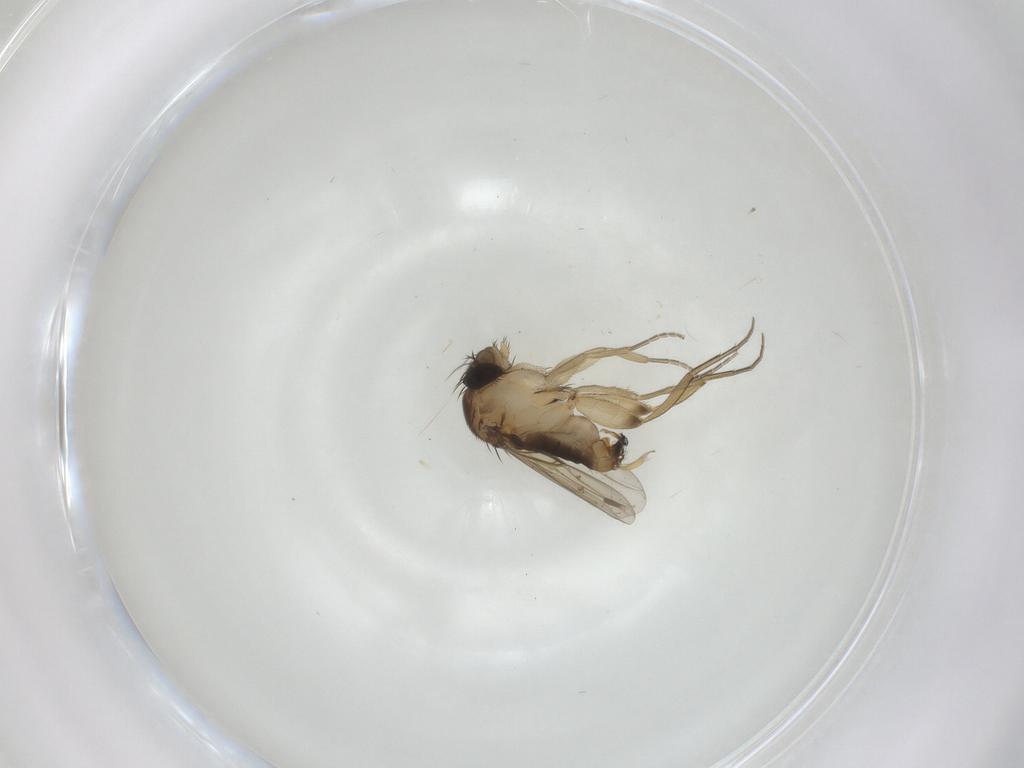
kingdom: Animalia
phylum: Arthropoda
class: Insecta
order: Diptera
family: Phoridae
